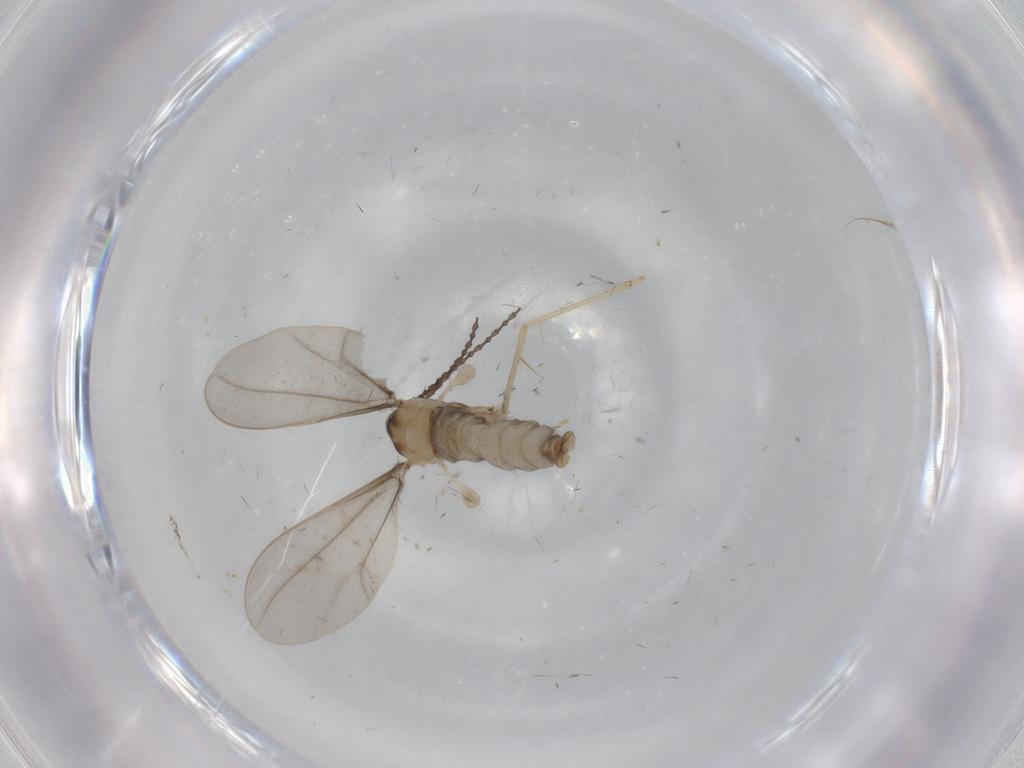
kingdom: Animalia
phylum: Arthropoda
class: Insecta
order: Diptera
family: Cecidomyiidae
